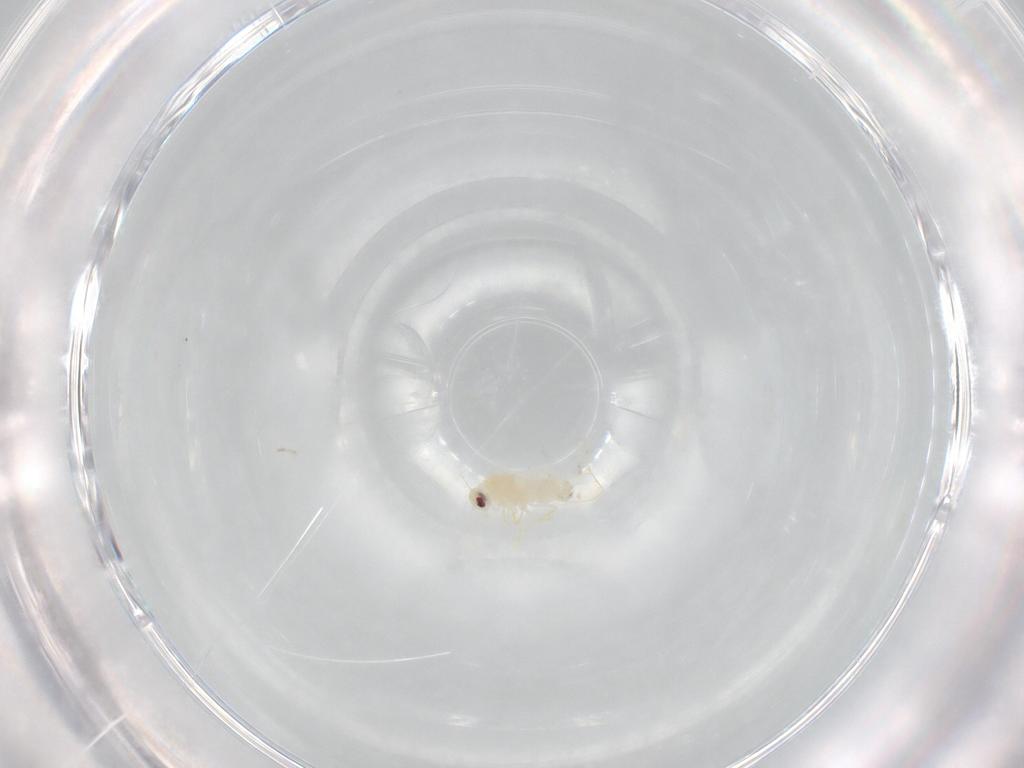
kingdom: Animalia
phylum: Arthropoda
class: Insecta
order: Hemiptera
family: Aleyrodidae
